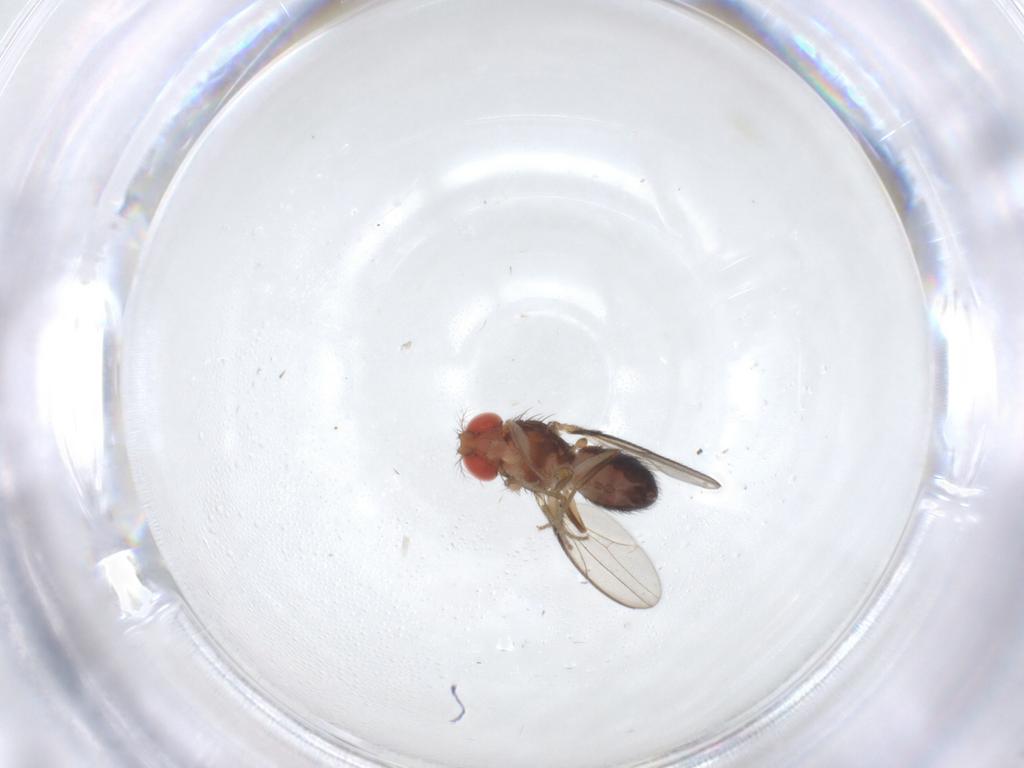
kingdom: Animalia
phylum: Arthropoda
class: Insecta
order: Diptera
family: Drosophilidae
